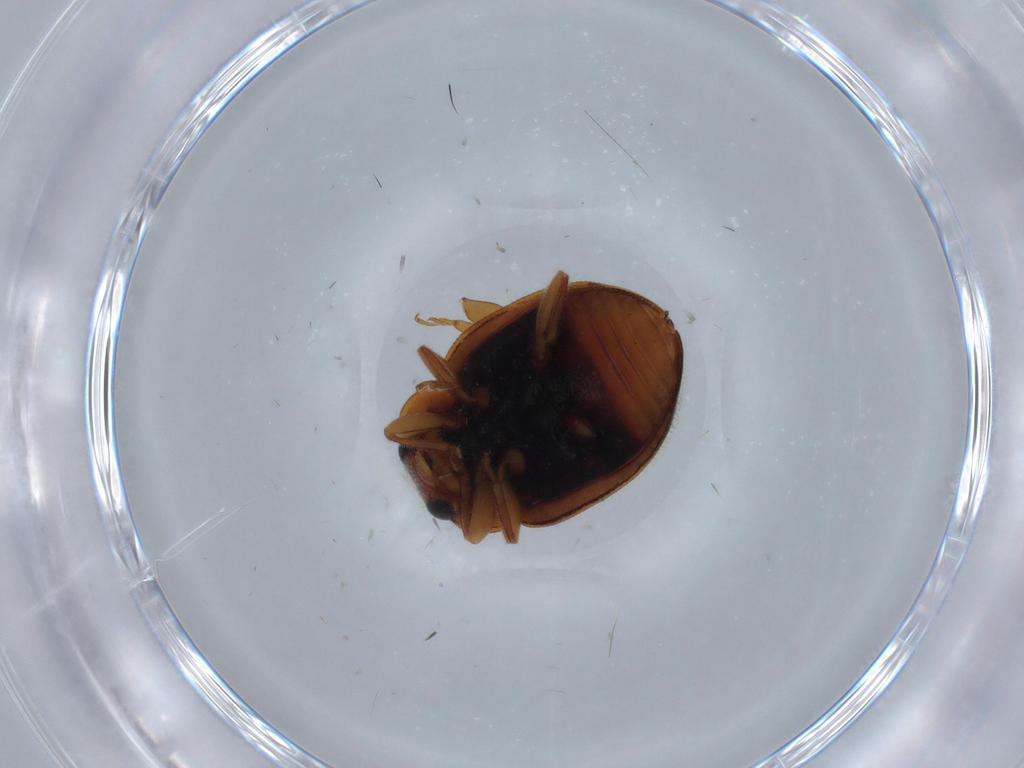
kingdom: Animalia
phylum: Arthropoda
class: Insecta
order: Coleoptera
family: Coccinellidae
